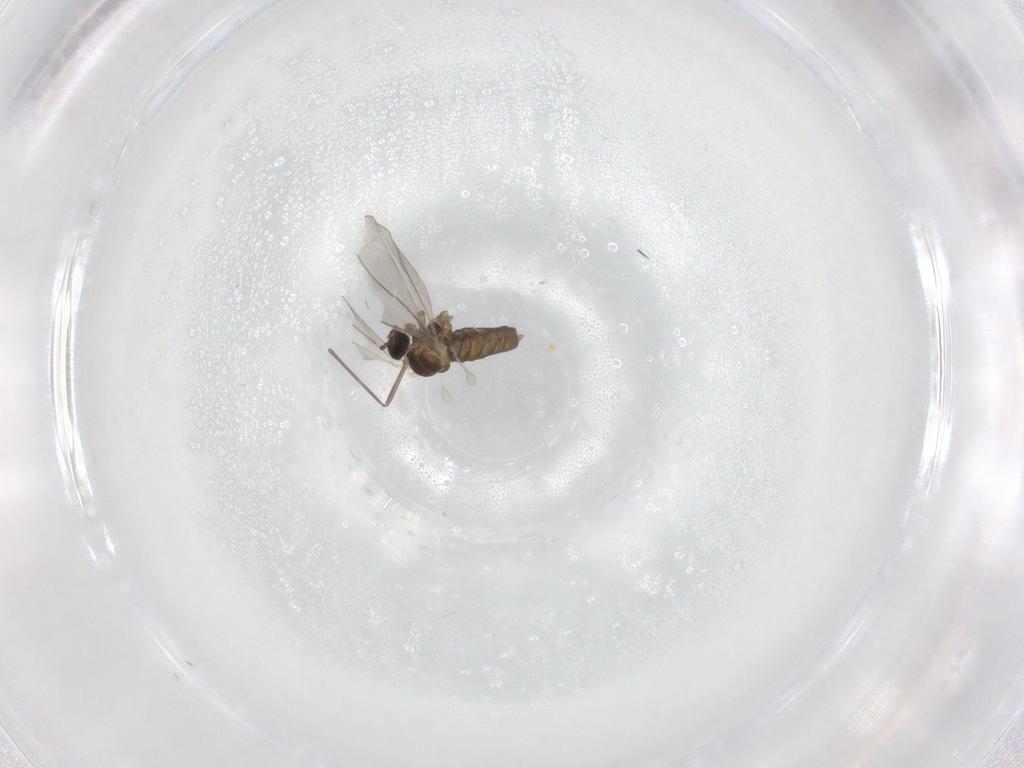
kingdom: Animalia
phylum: Arthropoda
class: Insecta
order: Diptera
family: Cecidomyiidae
